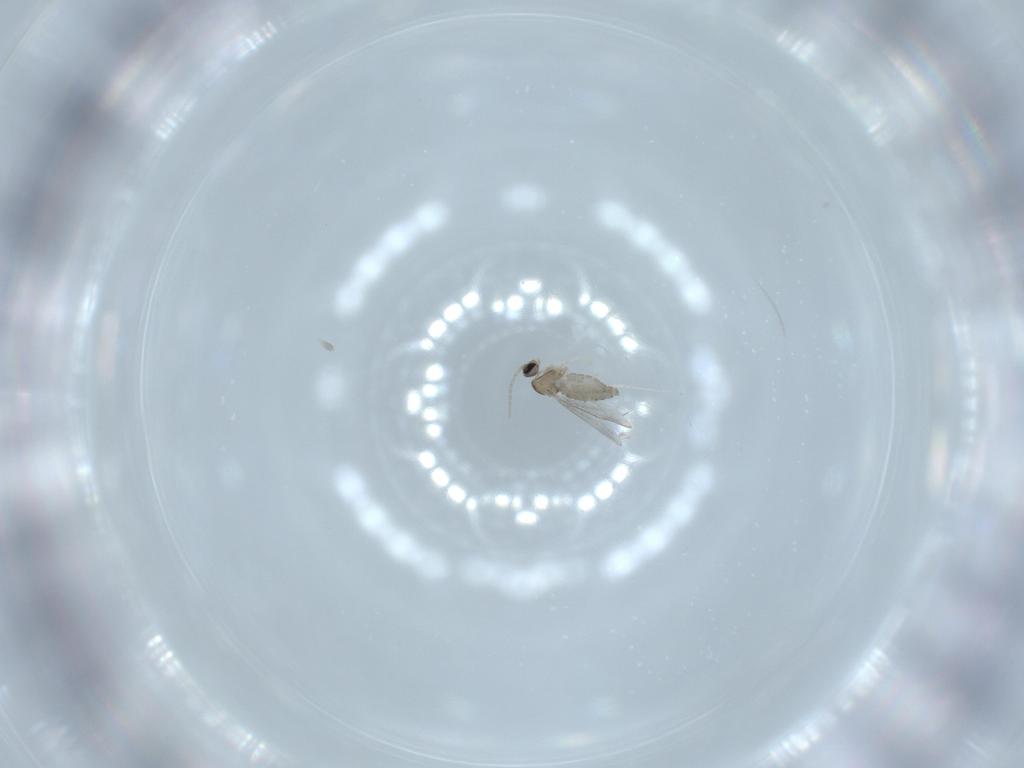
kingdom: Animalia
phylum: Arthropoda
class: Insecta
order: Diptera
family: Cecidomyiidae
